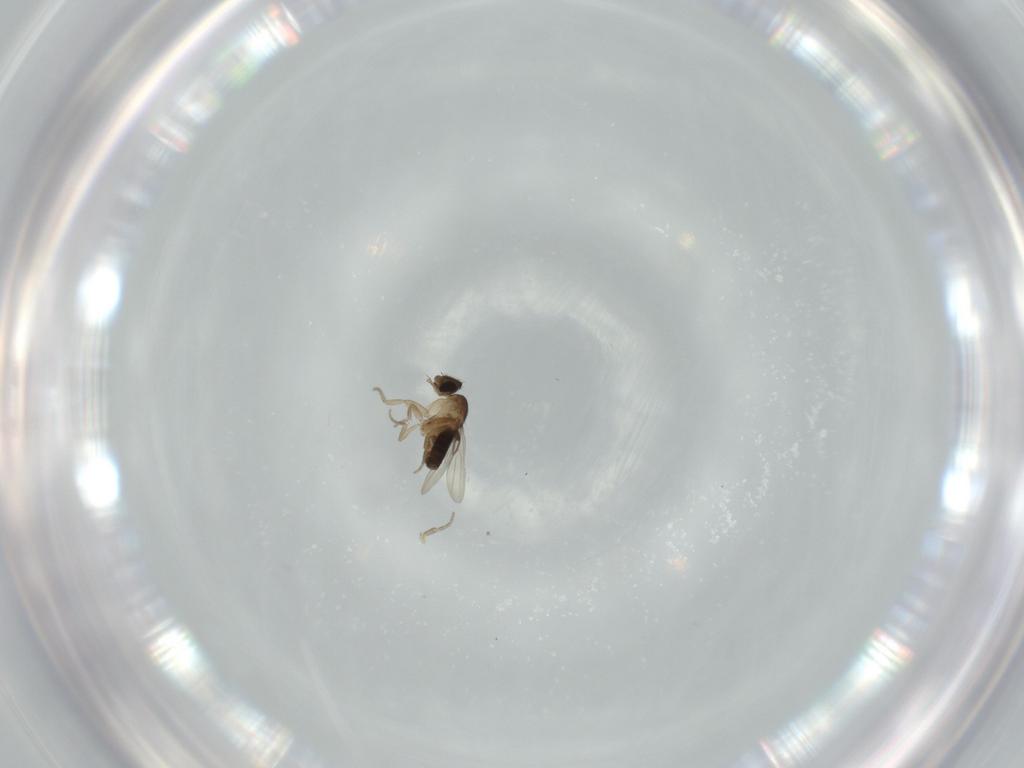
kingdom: Animalia
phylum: Arthropoda
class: Insecta
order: Diptera
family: Phoridae
